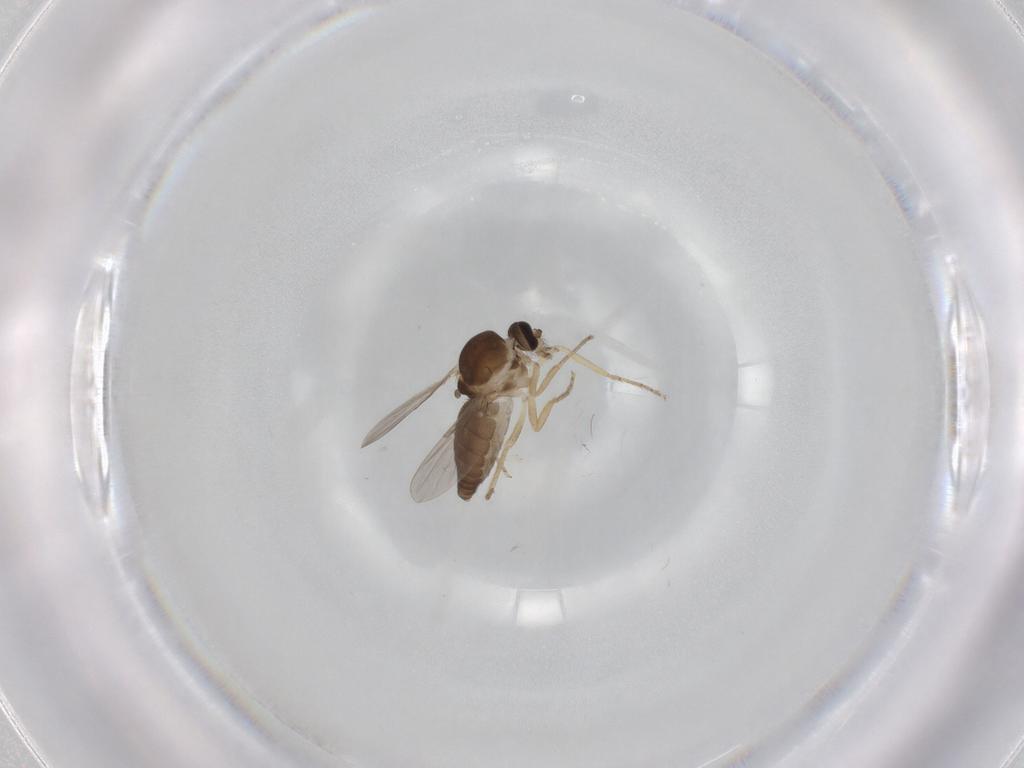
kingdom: Animalia
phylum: Arthropoda
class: Insecta
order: Diptera
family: Ceratopogonidae
